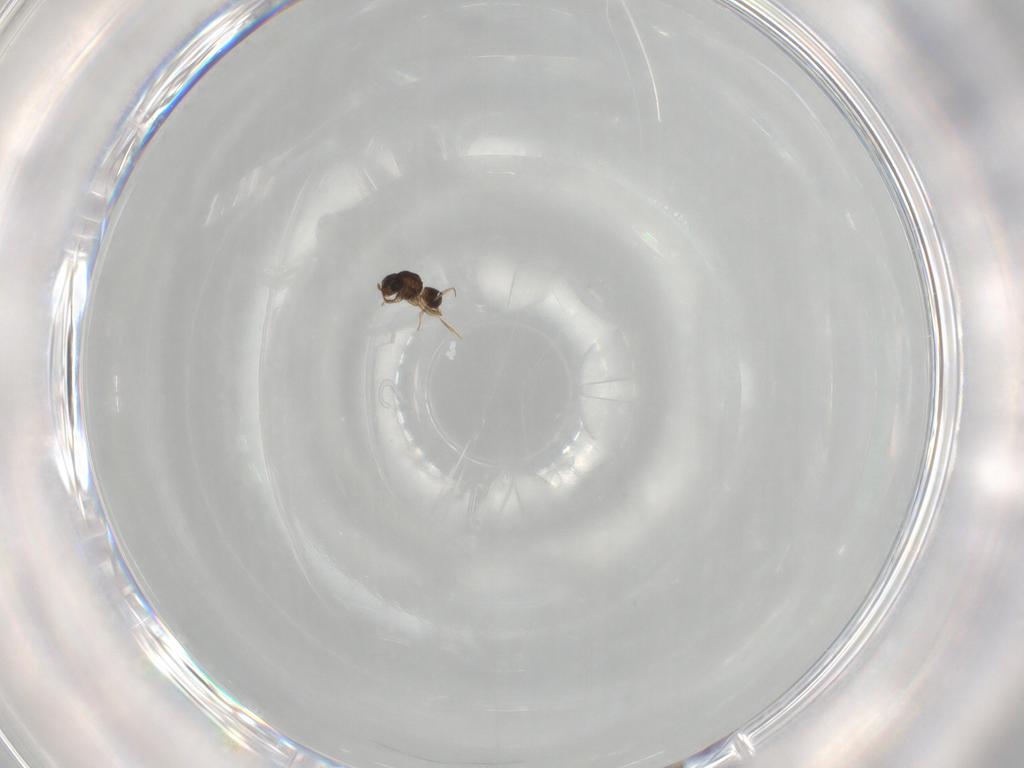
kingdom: Animalia
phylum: Arthropoda
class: Insecta
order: Hymenoptera
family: Scelionidae
